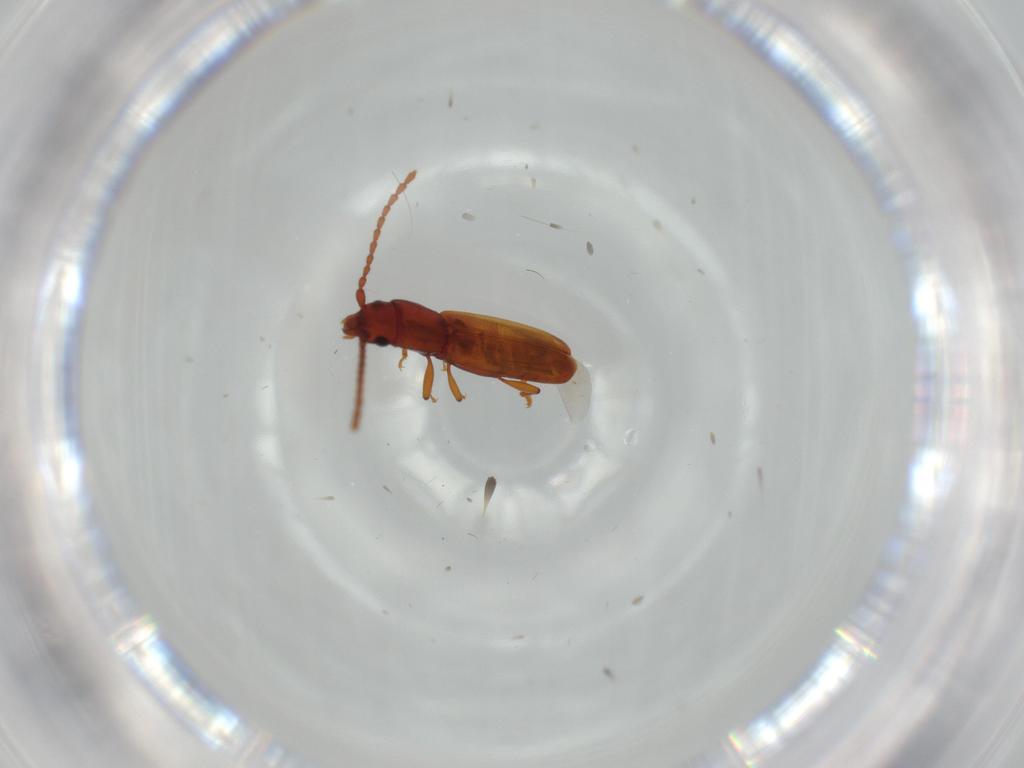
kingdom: Animalia
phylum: Arthropoda
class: Insecta
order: Coleoptera
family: Laemophloeidae
